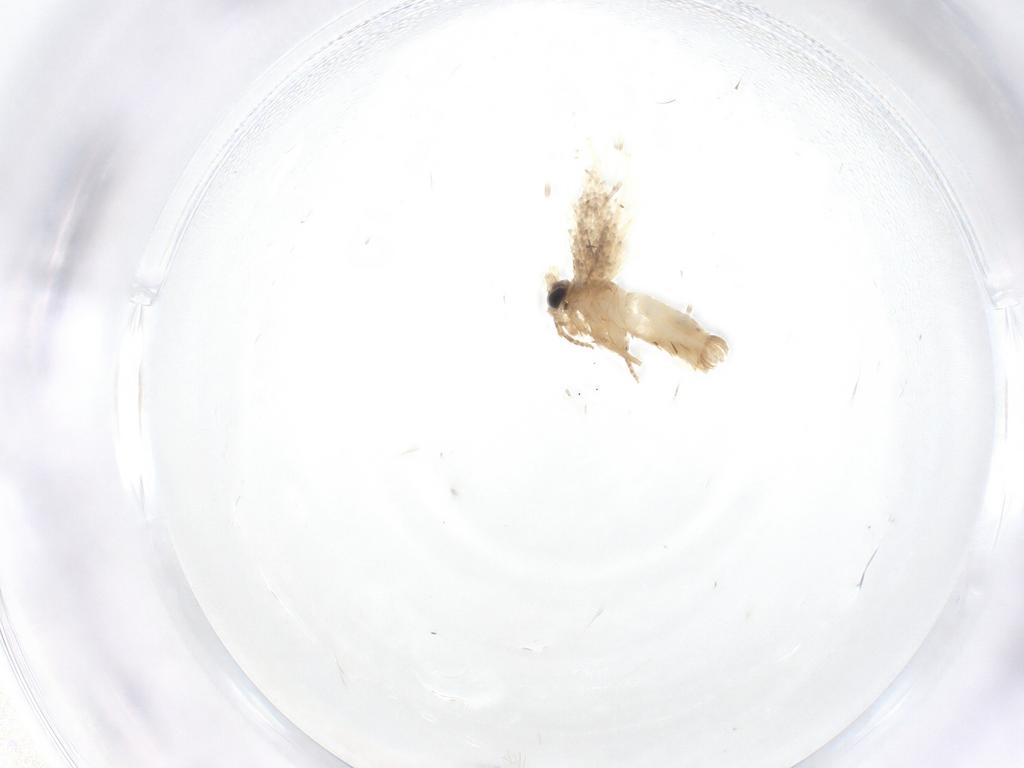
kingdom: Animalia
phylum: Arthropoda
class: Insecta
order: Lepidoptera
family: Nepticulidae
